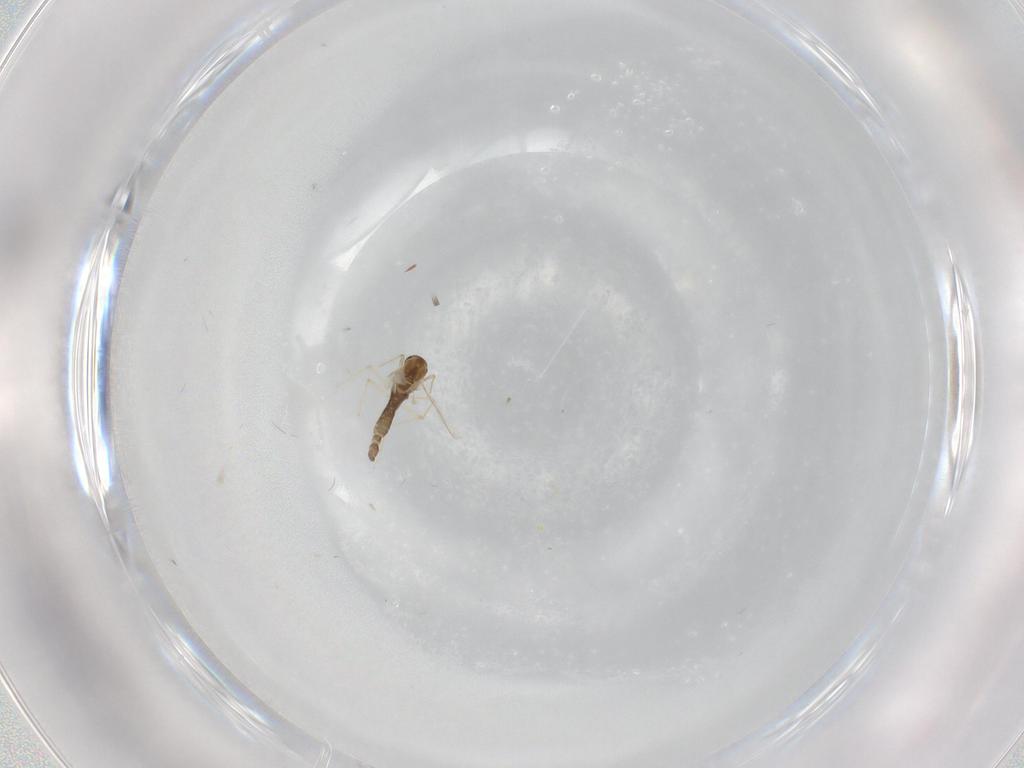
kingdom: Animalia
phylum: Arthropoda
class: Insecta
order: Diptera
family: Chironomidae
